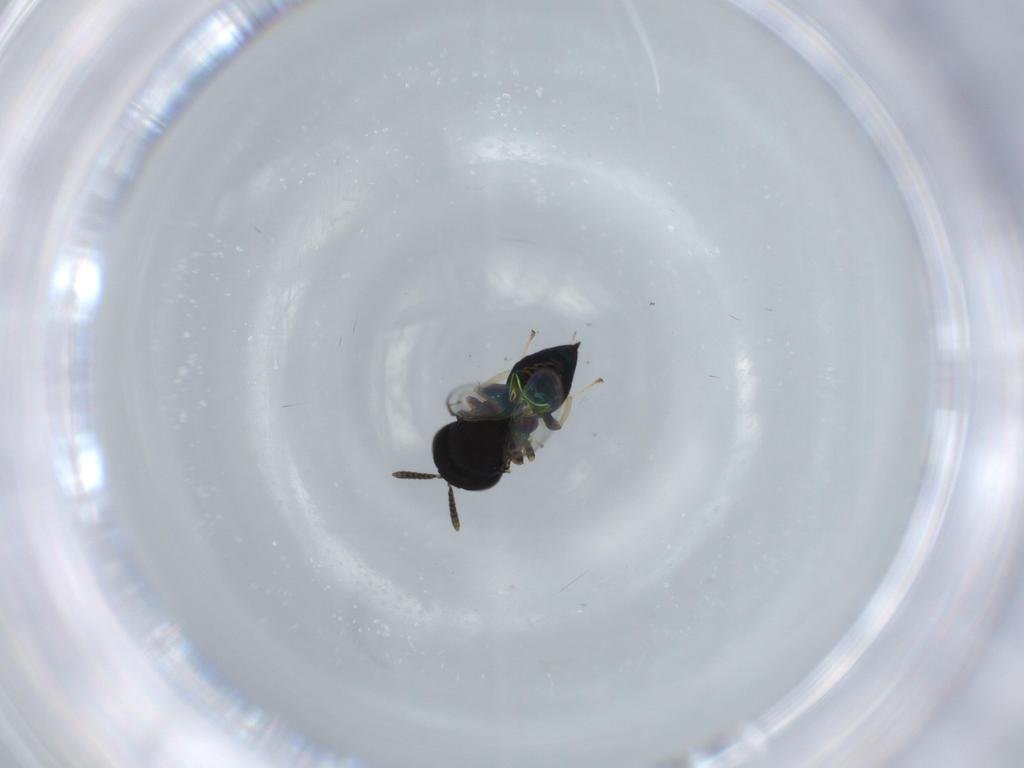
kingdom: Animalia
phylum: Arthropoda
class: Insecta
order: Hymenoptera
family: Pteromalidae
